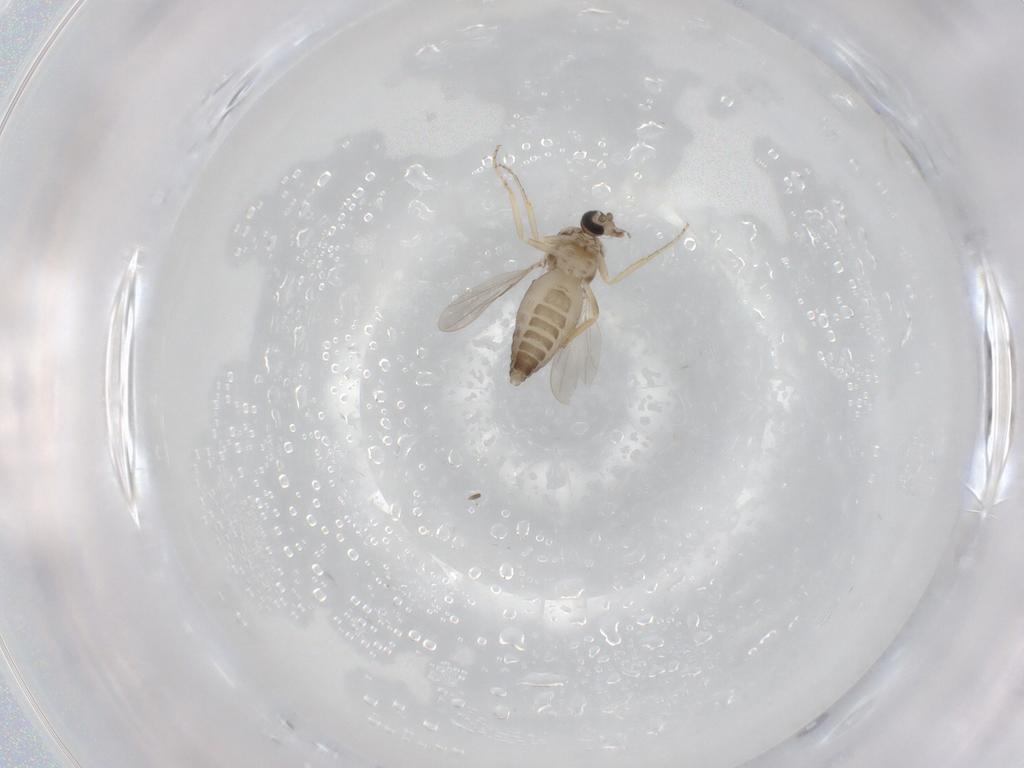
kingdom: Animalia
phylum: Arthropoda
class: Insecta
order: Diptera
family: Ceratopogonidae
